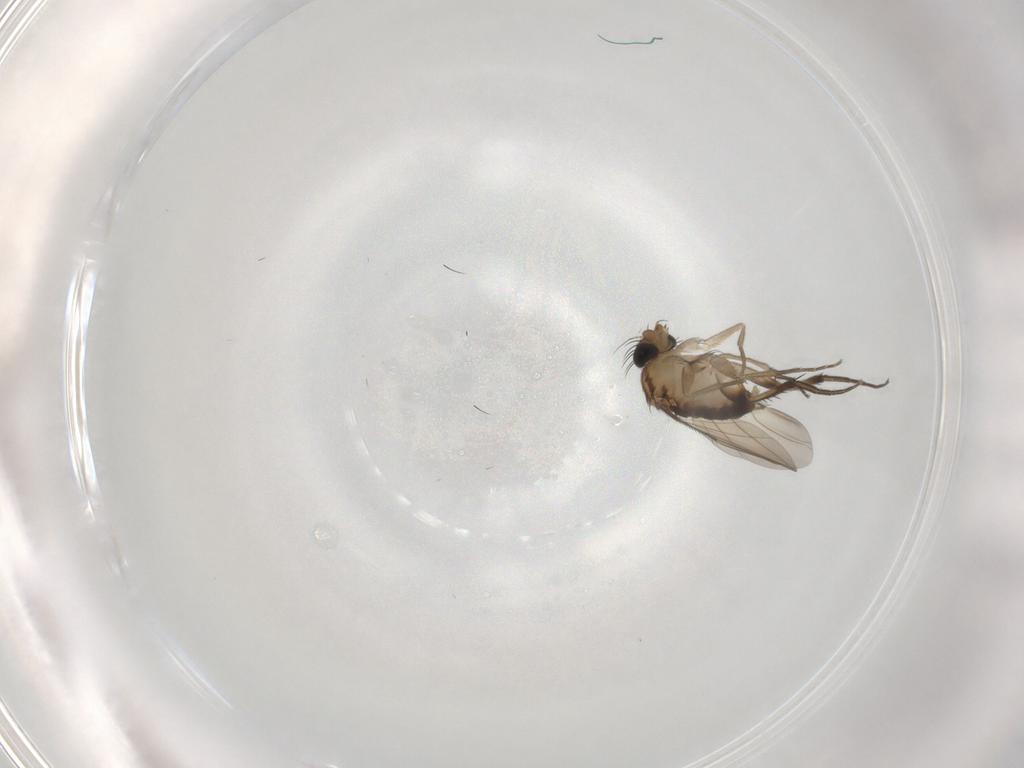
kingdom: Animalia
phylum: Arthropoda
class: Insecta
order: Diptera
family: Phoridae
